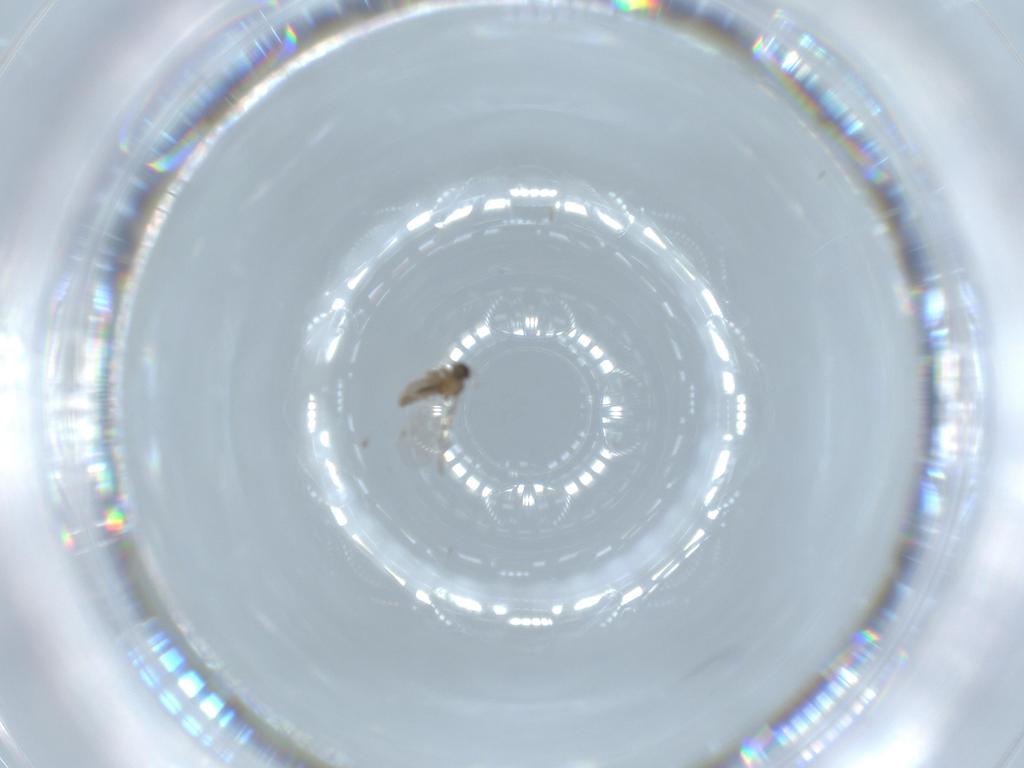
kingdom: Animalia
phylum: Arthropoda
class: Insecta
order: Diptera
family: Cecidomyiidae
